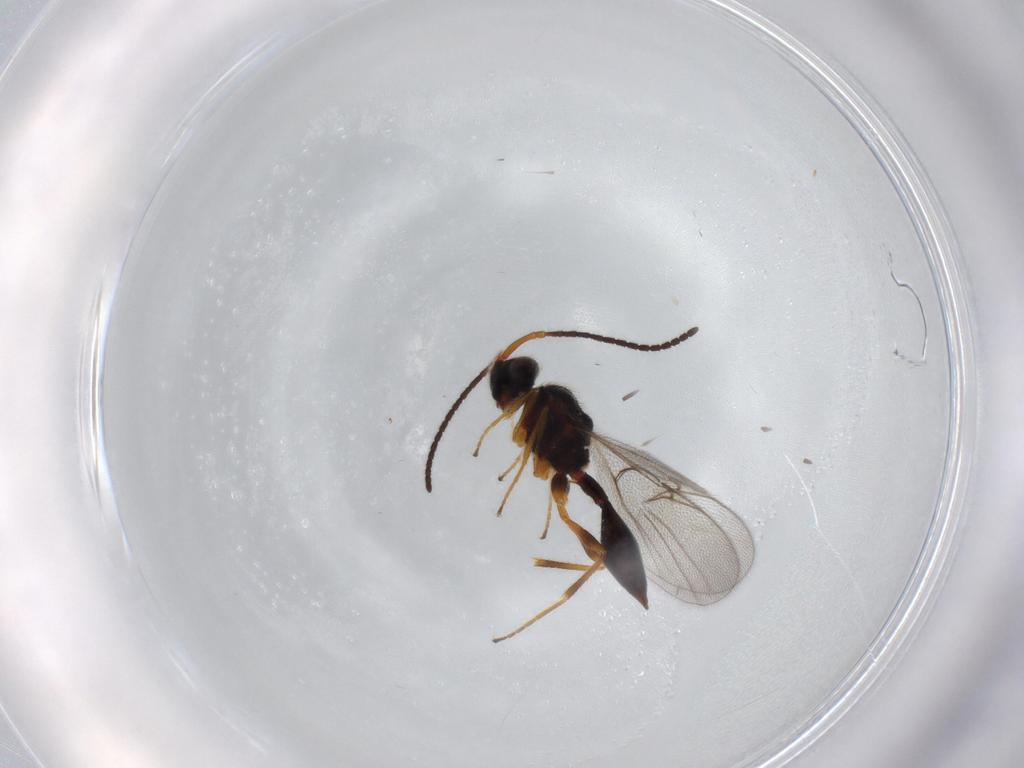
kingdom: Animalia
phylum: Arthropoda
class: Insecta
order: Hymenoptera
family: Diapriidae
